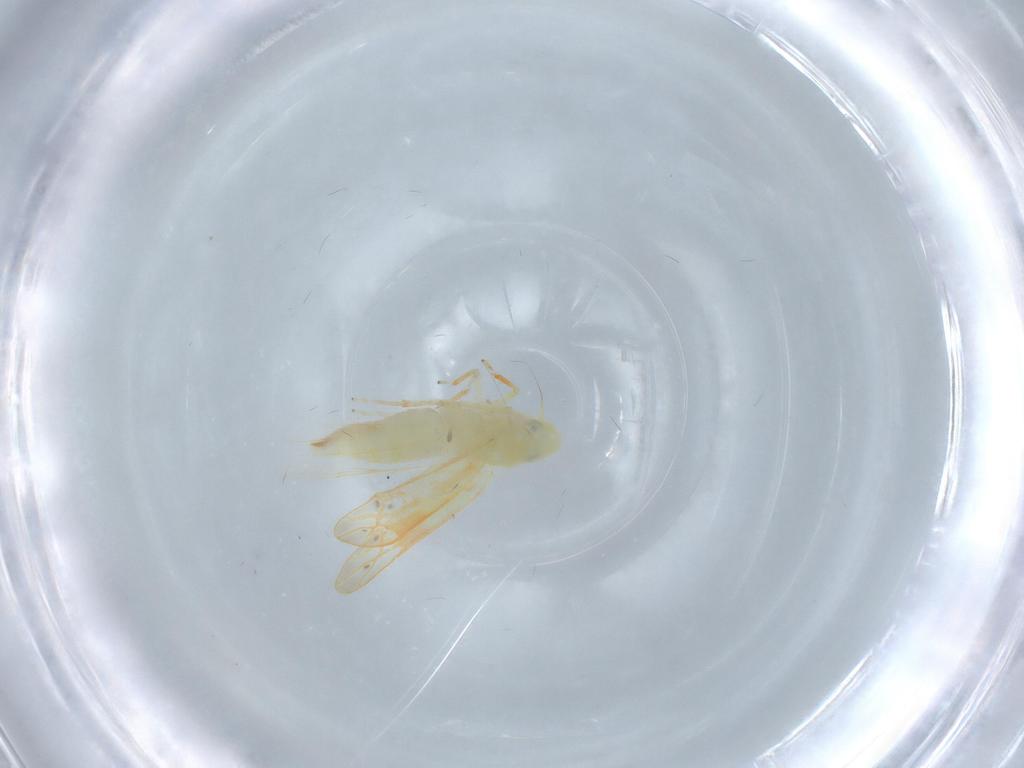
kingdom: Animalia
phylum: Arthropoda
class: Insecta
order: Hemiptera
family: Cicadellidae
